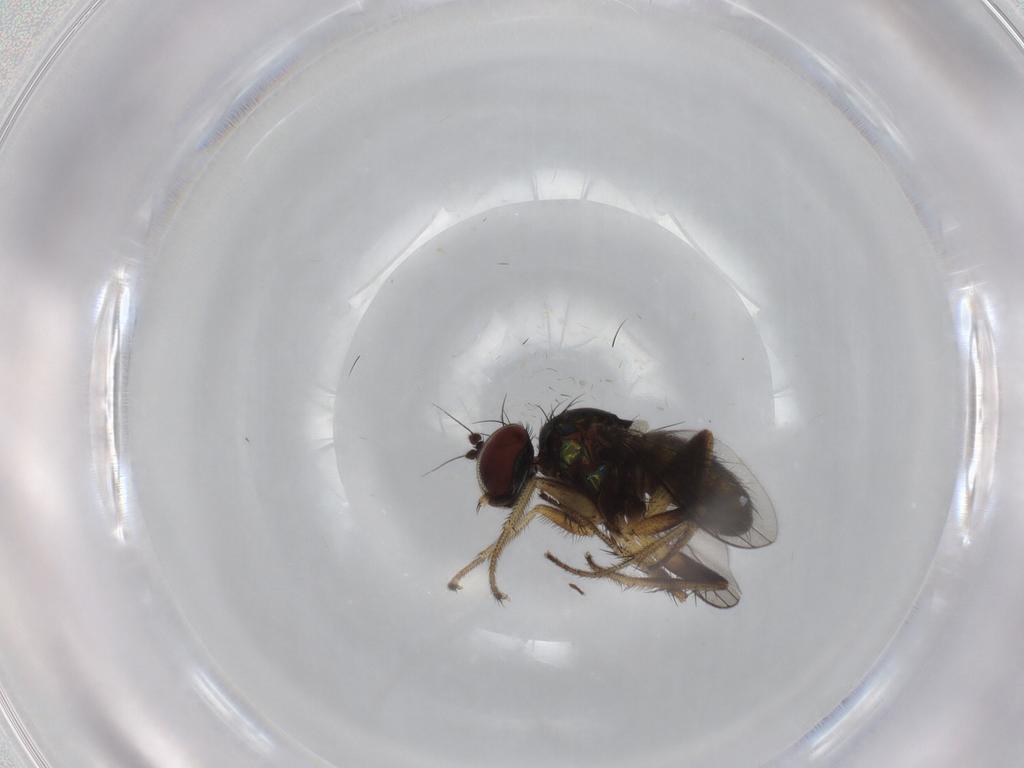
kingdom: Animalia
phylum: Arthropoda
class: Insecta
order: Diptera
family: Dolichopodidae
